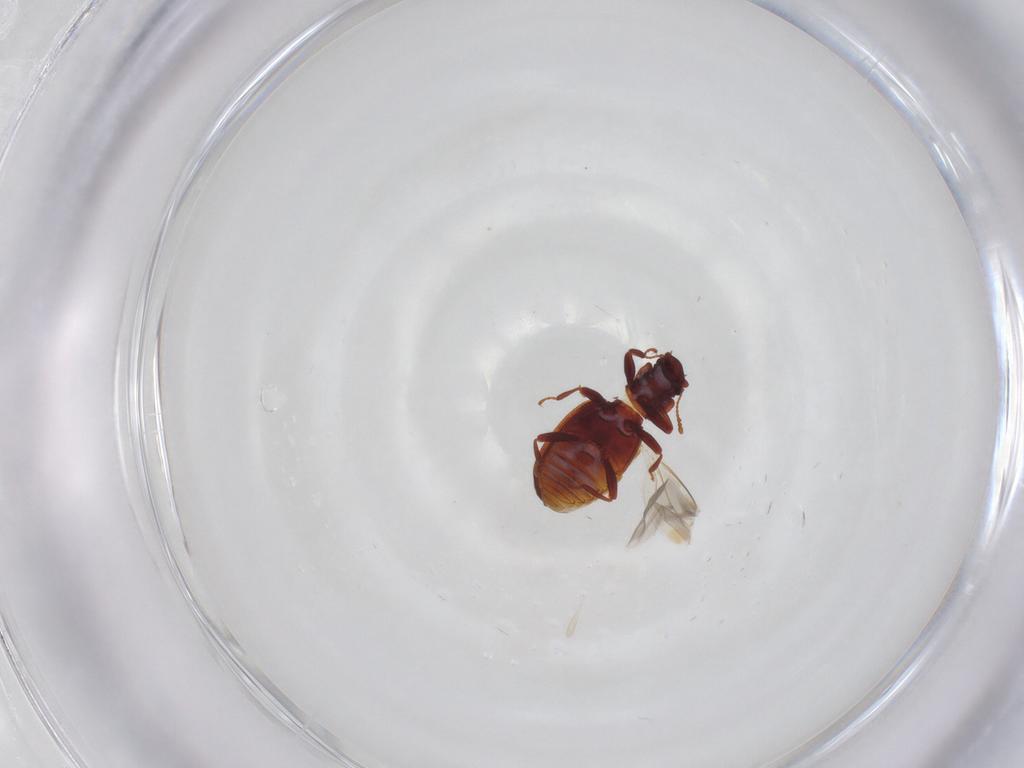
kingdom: Animalia
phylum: Arthropoda
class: Insecta
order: Coleoptera
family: Latridiidae
